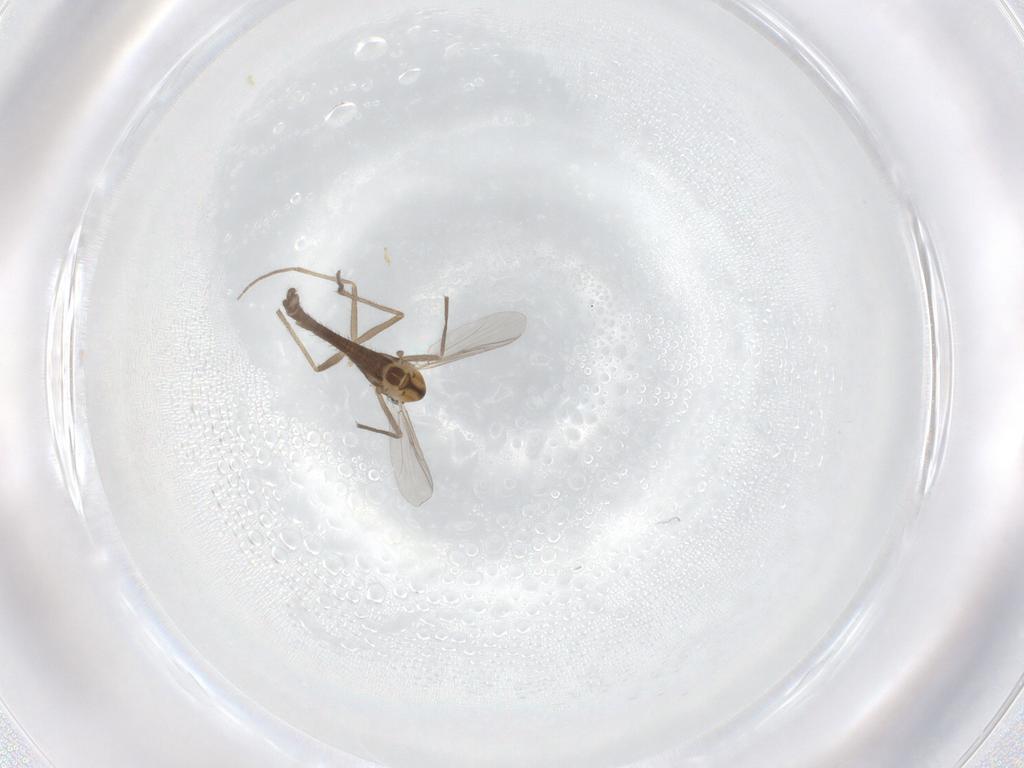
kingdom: Animalia
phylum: Arthropoda
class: Insecta
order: Diptera
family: Chironomidae
